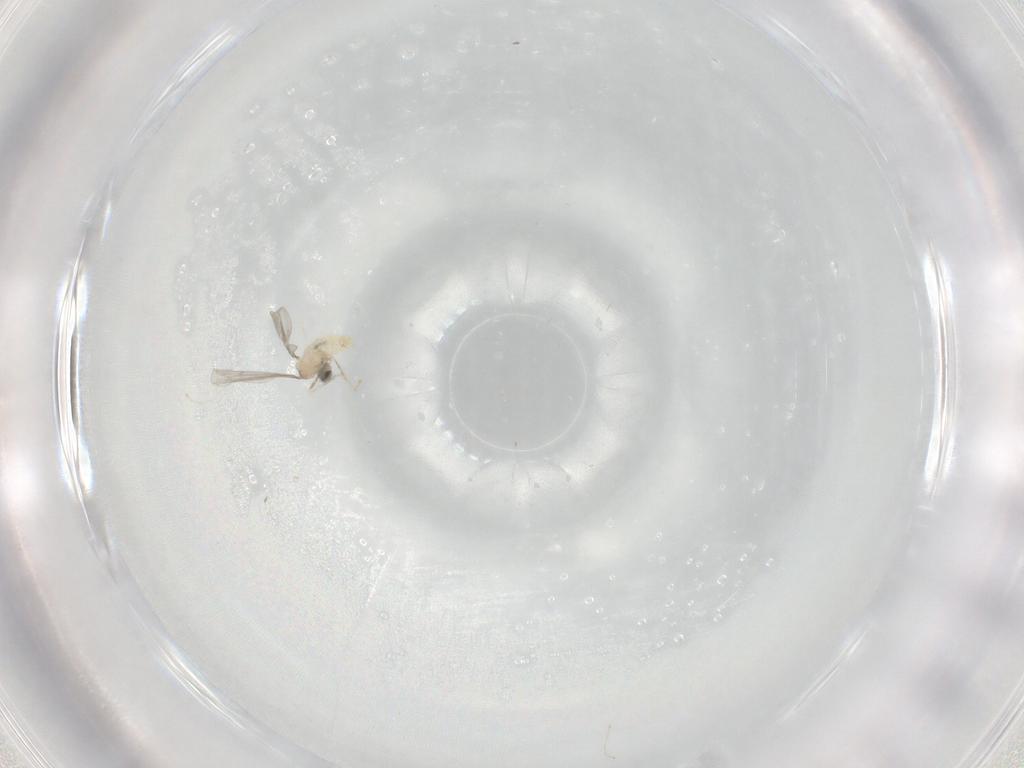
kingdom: Animalia
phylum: Arthropoda
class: Insecta
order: Diptera
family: Cecidomyiidae
